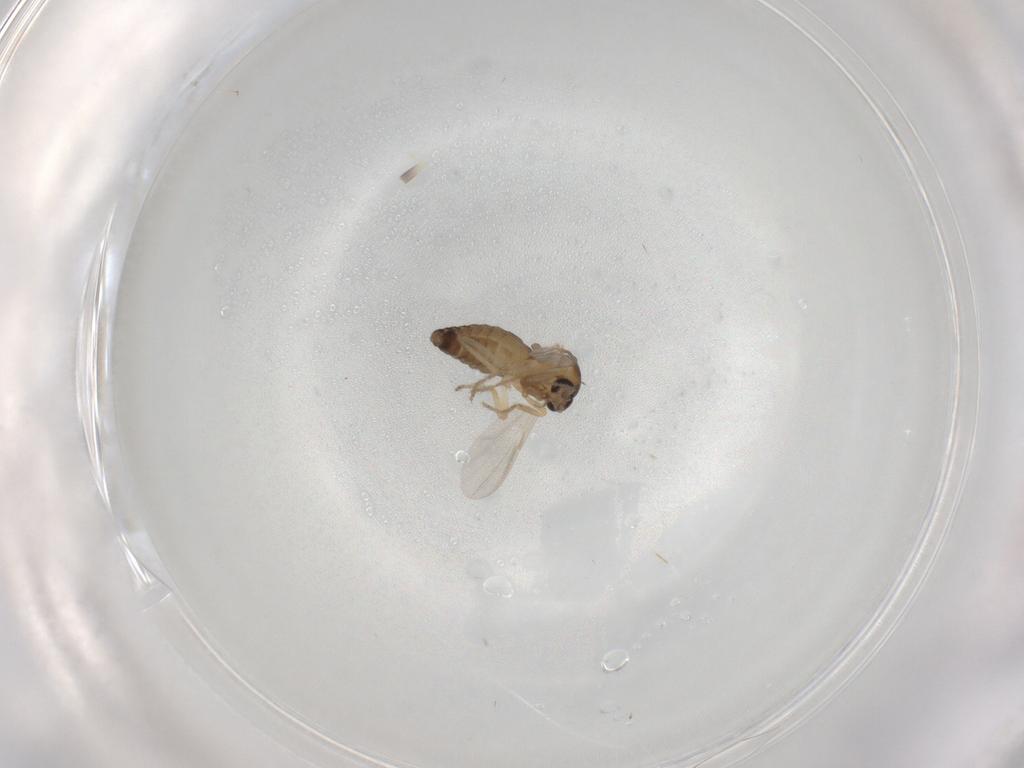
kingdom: Animalia
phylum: Arthropoda
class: Insecta
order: Diptera
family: Ceratopogonidae
